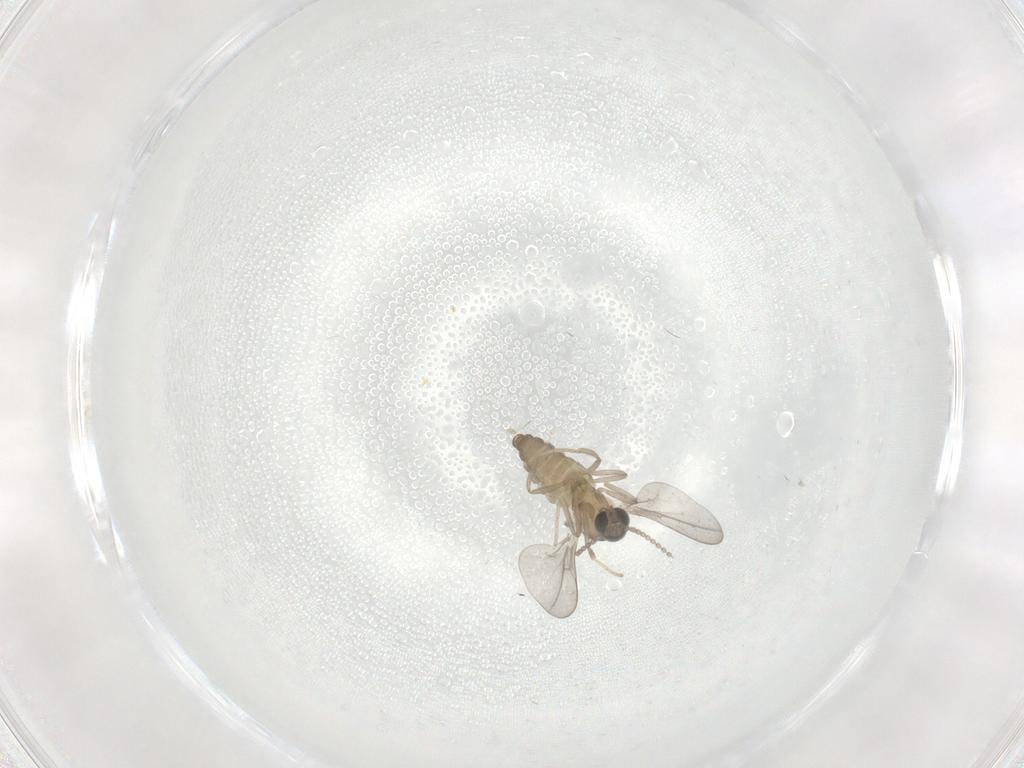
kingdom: Animalia
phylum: Arthropoda
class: Insecta
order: Diptera
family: Cecidomyiidae
